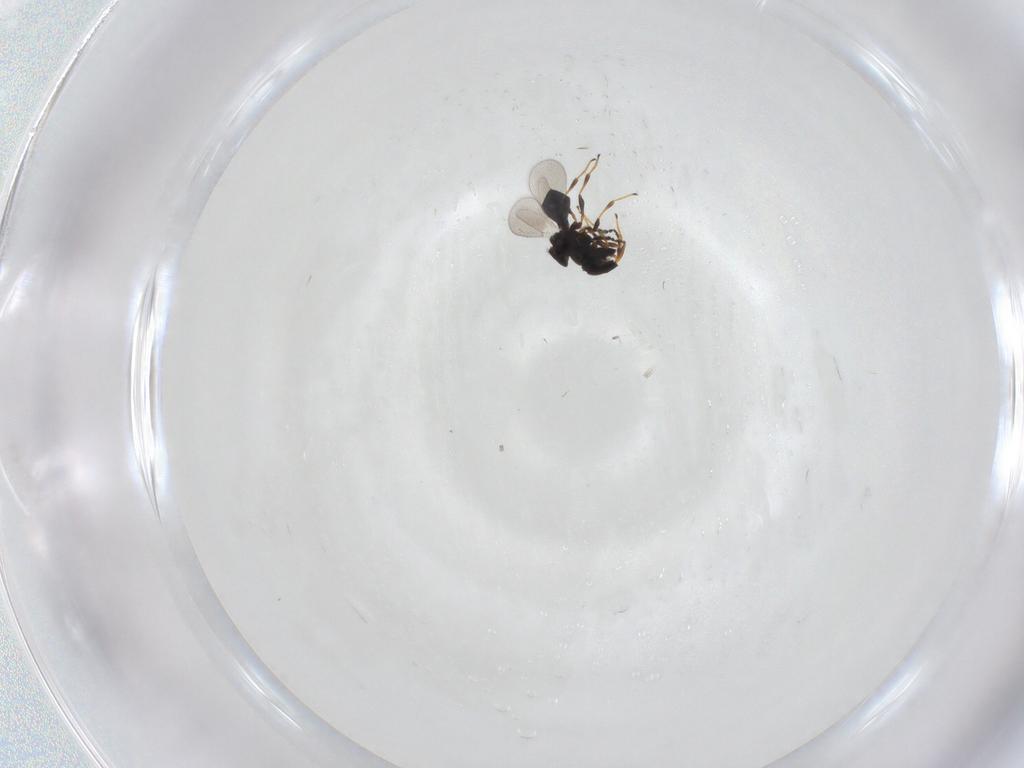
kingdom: Animalia
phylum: Arthropoda
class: Insecta
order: Hymenoptera
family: Platygastridae
